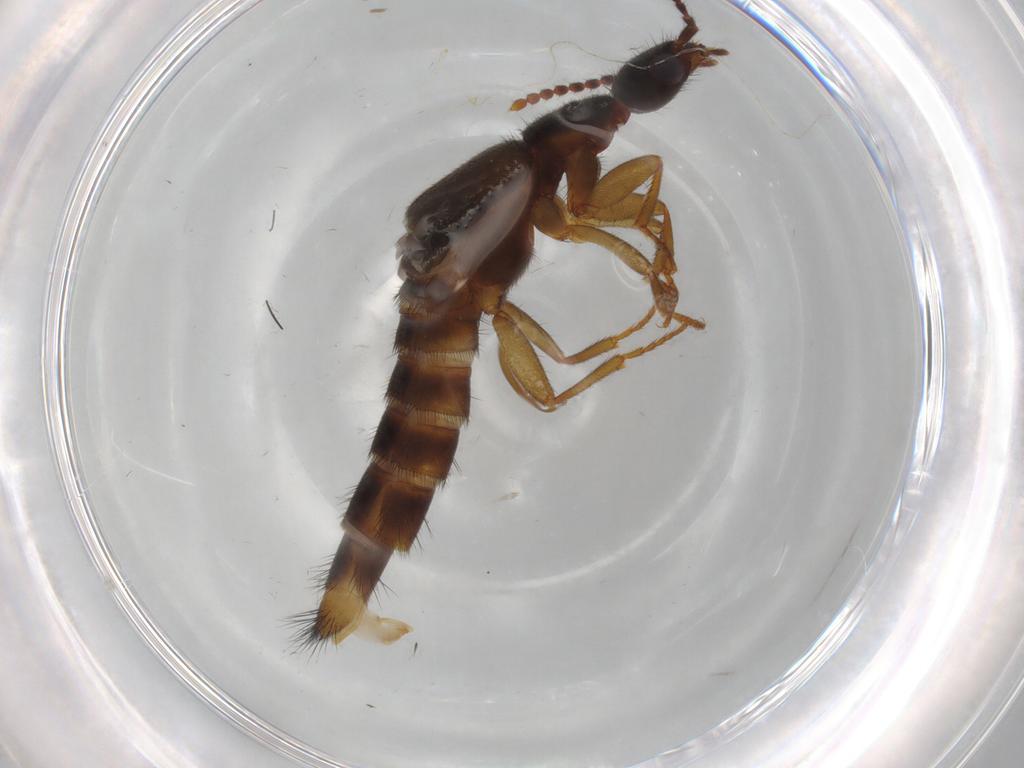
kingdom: Animalia
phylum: Arthropoda
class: Insecta
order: Coleoptera
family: Staphylinidae
